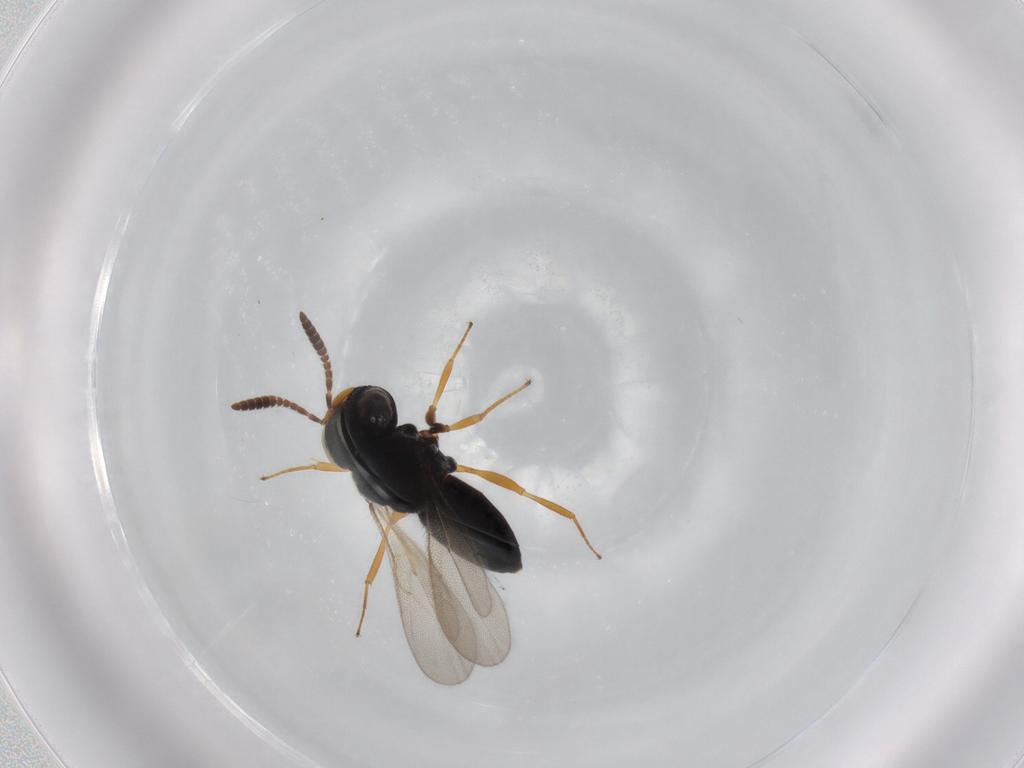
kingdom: Animalia
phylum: Arthropoda
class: Insecta
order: Hymenoptera
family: Scelionidae
